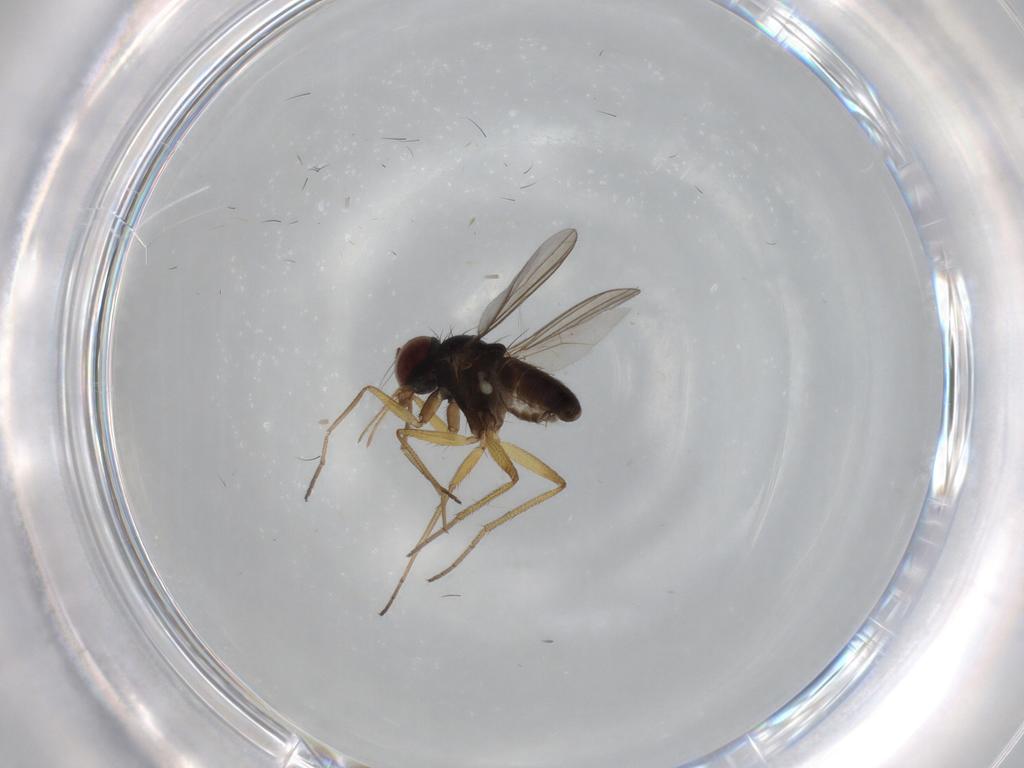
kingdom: Animalia
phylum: Arthropoda
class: Insecta
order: Diptera
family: Dolichopodidae
